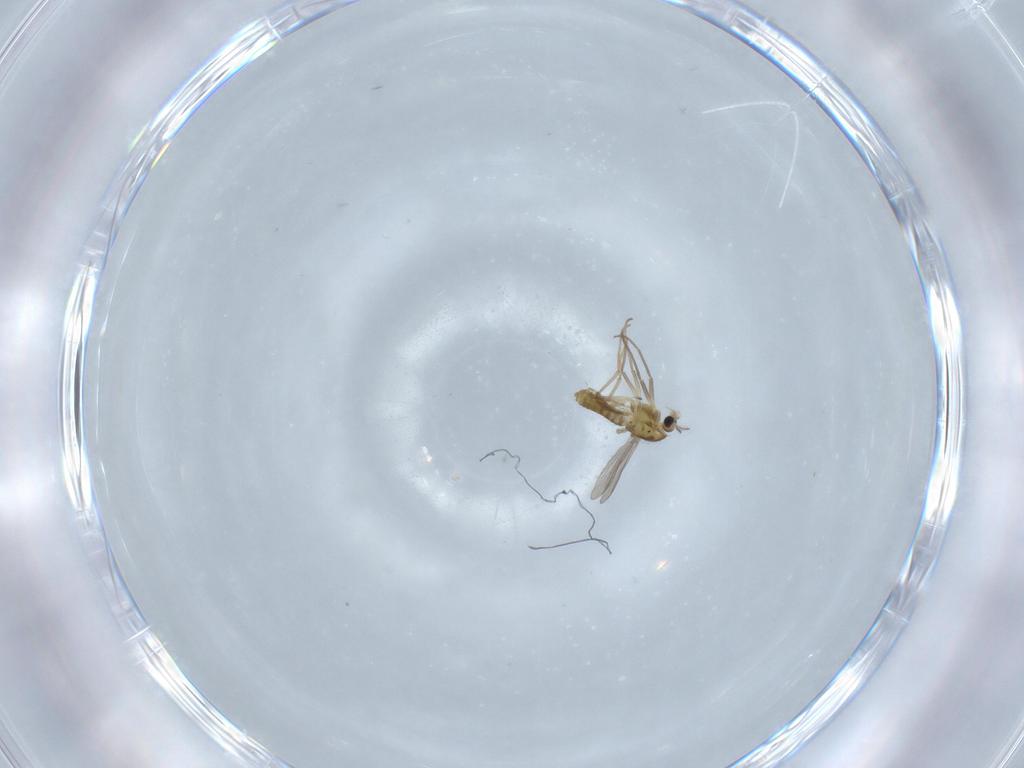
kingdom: Animalia
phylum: Arthropoda
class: Insecta
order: Diptera
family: Chironomidae
